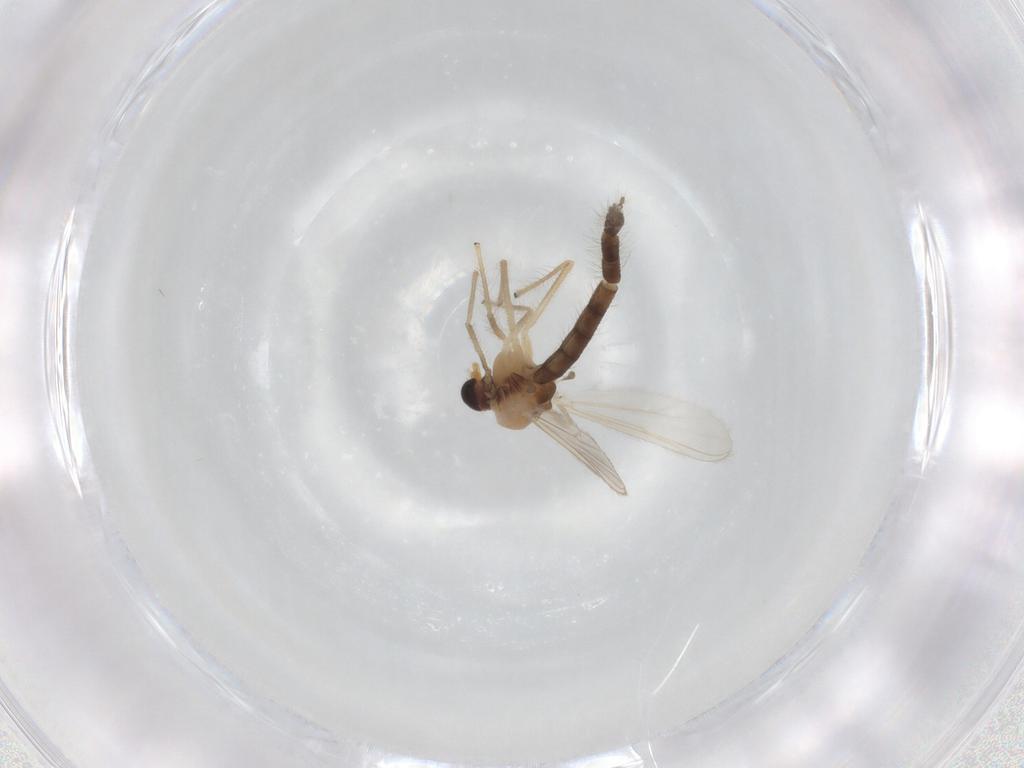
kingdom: Animalia
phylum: Arthropoda
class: Insecta
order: Diptera
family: Chironomidae
